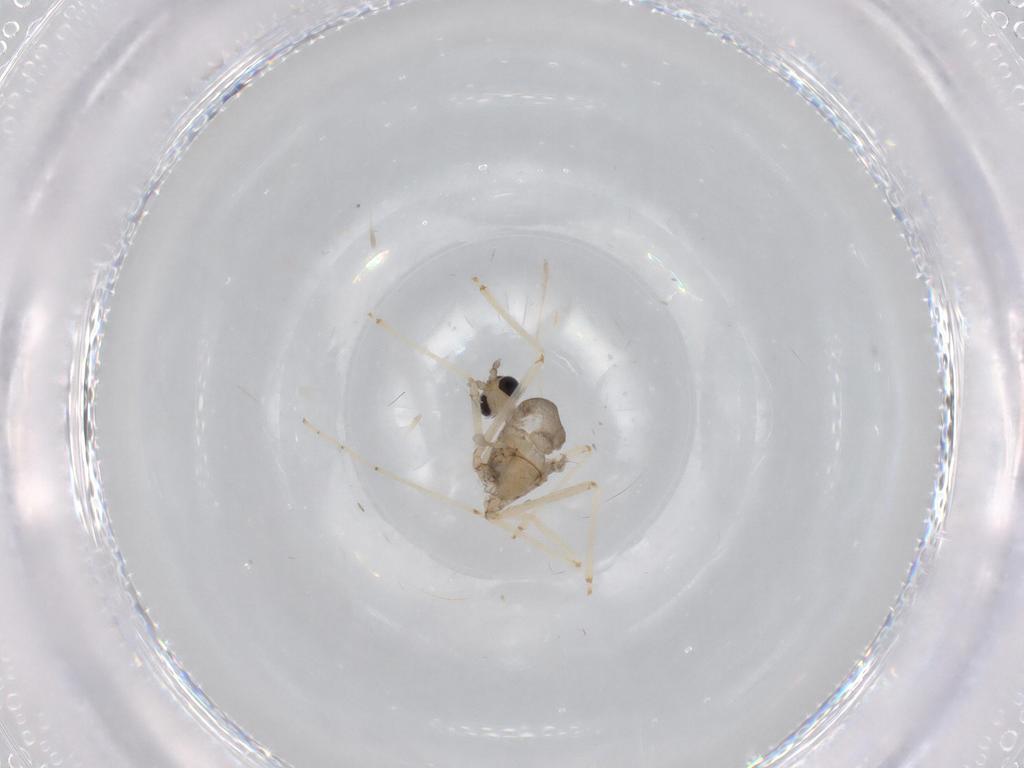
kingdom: Animalia
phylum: Arthropoda
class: Insecta
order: Diptera
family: Cecidomyiidae
